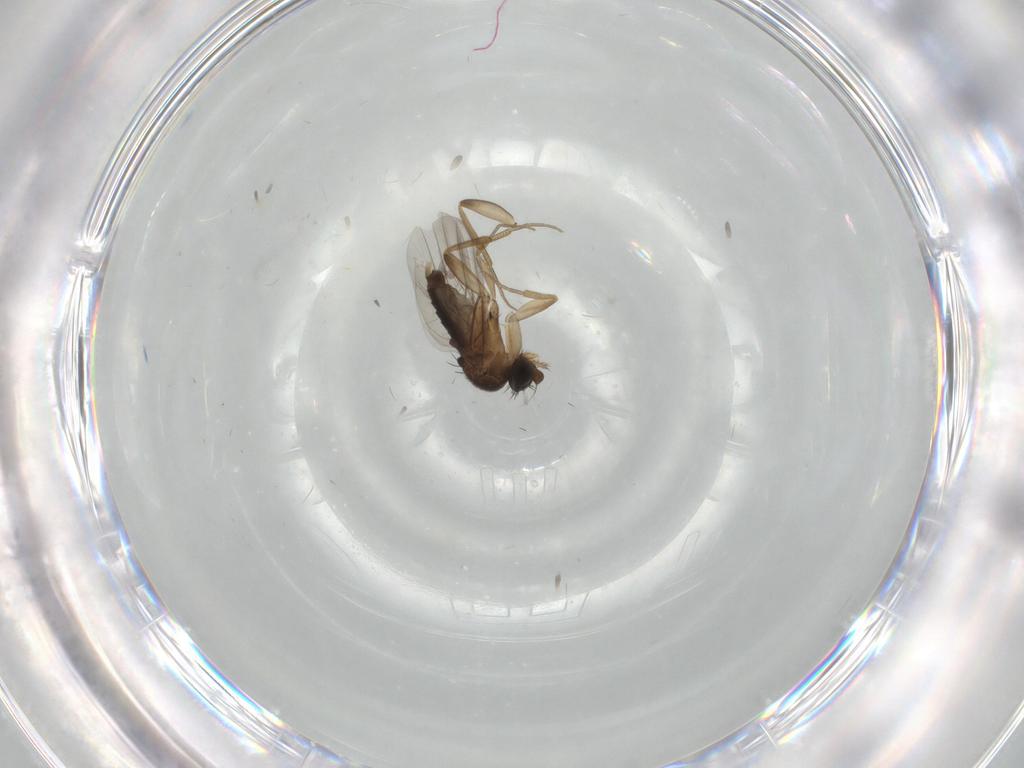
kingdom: Animalia
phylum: Arthropoda
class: Insecta
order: Diptera
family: Phoridae
